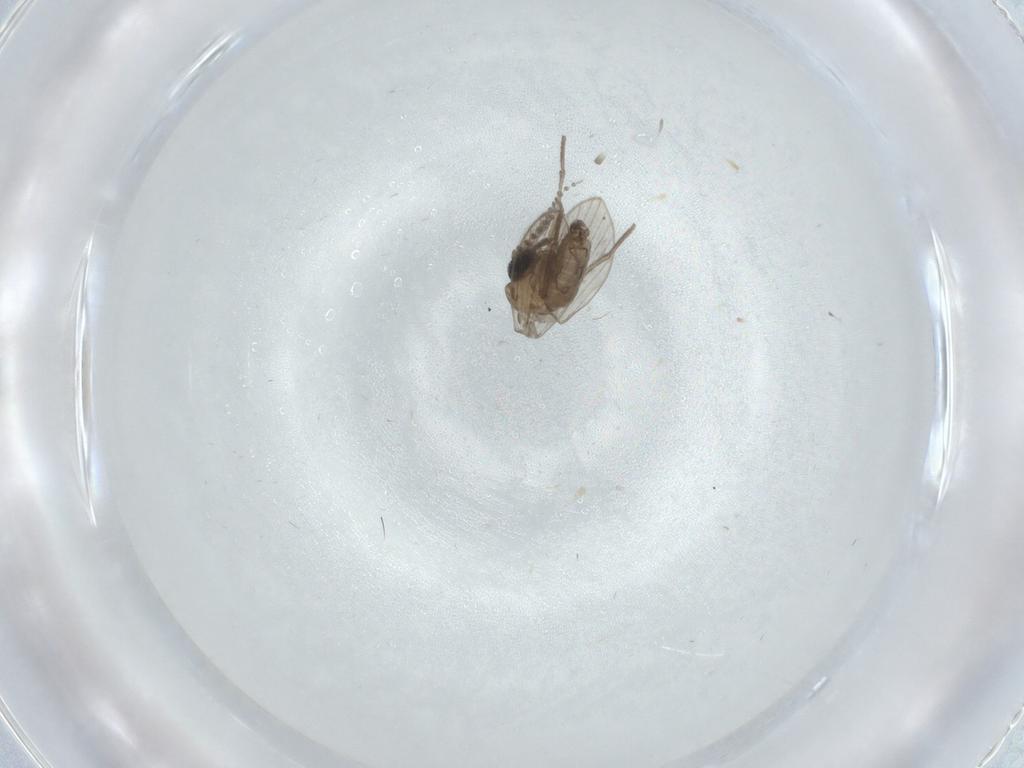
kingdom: Animalia
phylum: Arthropoda
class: Insecta
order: Diptera
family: Psychodidae
